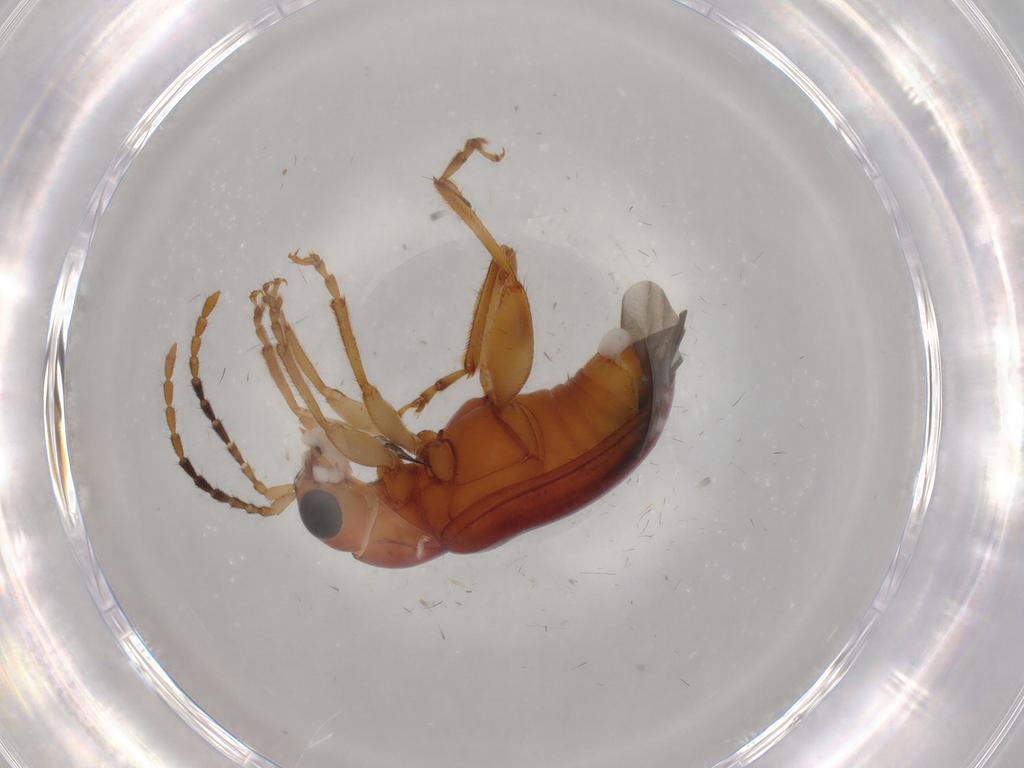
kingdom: Animalia
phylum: Arthropoda
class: Insecta
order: Coleoptera
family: Chrysomelidae
